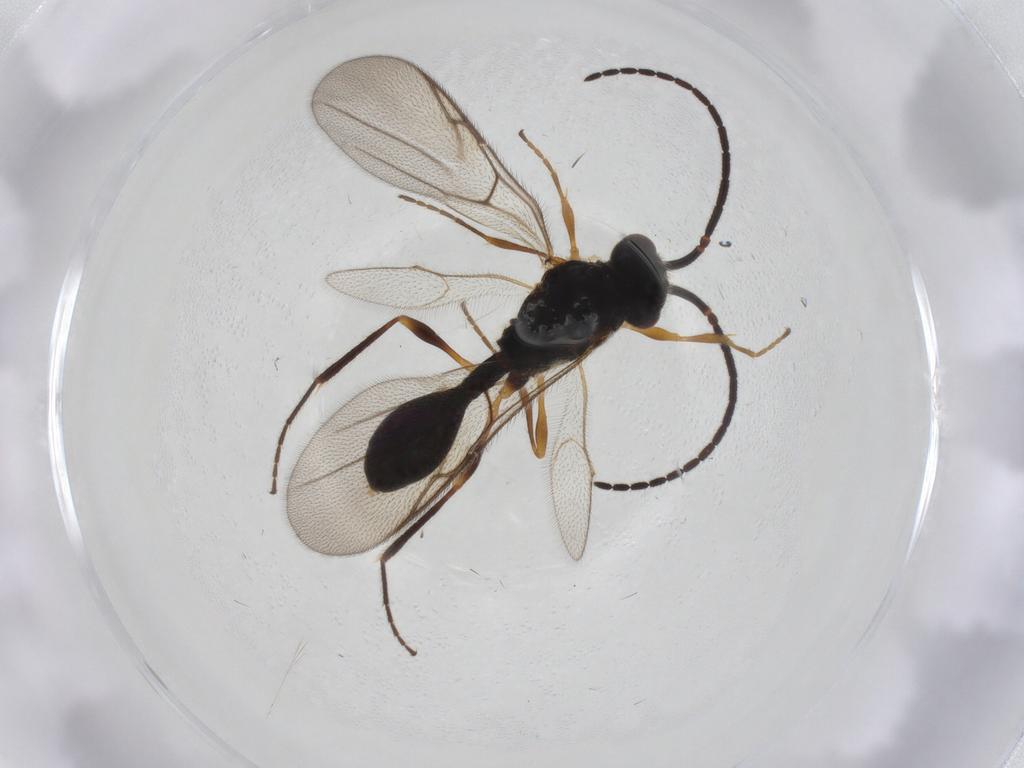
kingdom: Animalia
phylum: Arthropoda
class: Insecta
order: Hymenoptera
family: Diapriidae
